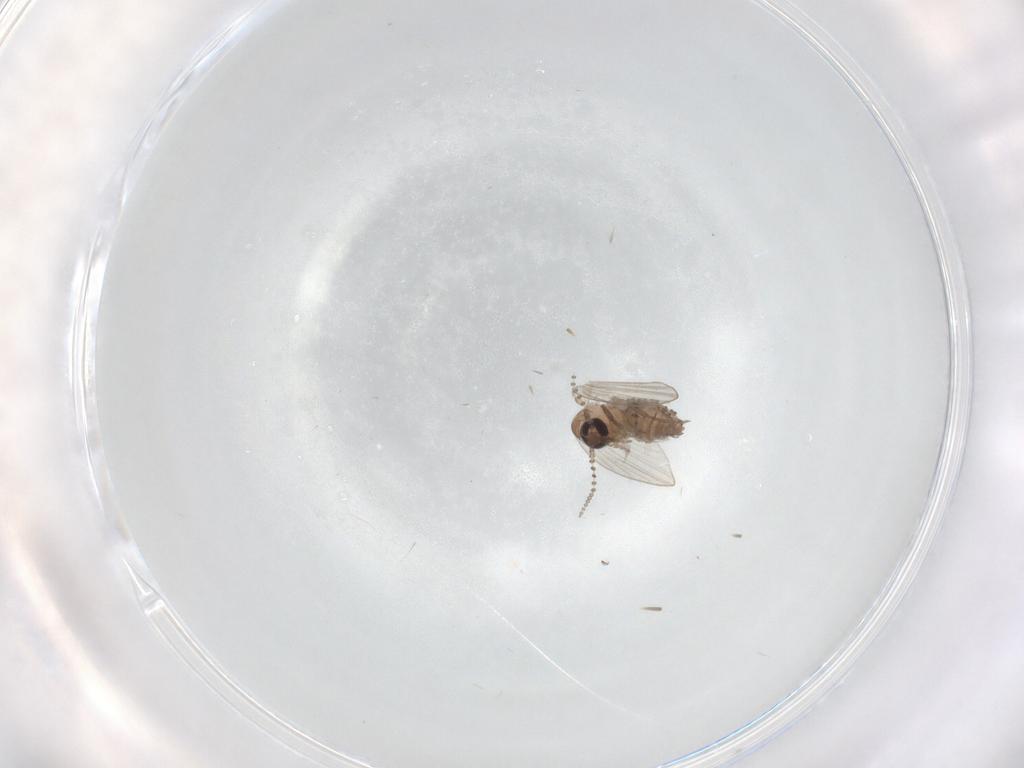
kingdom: Animalia
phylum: Arthropoda
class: Insecta
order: Diptera
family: Psychodidae
